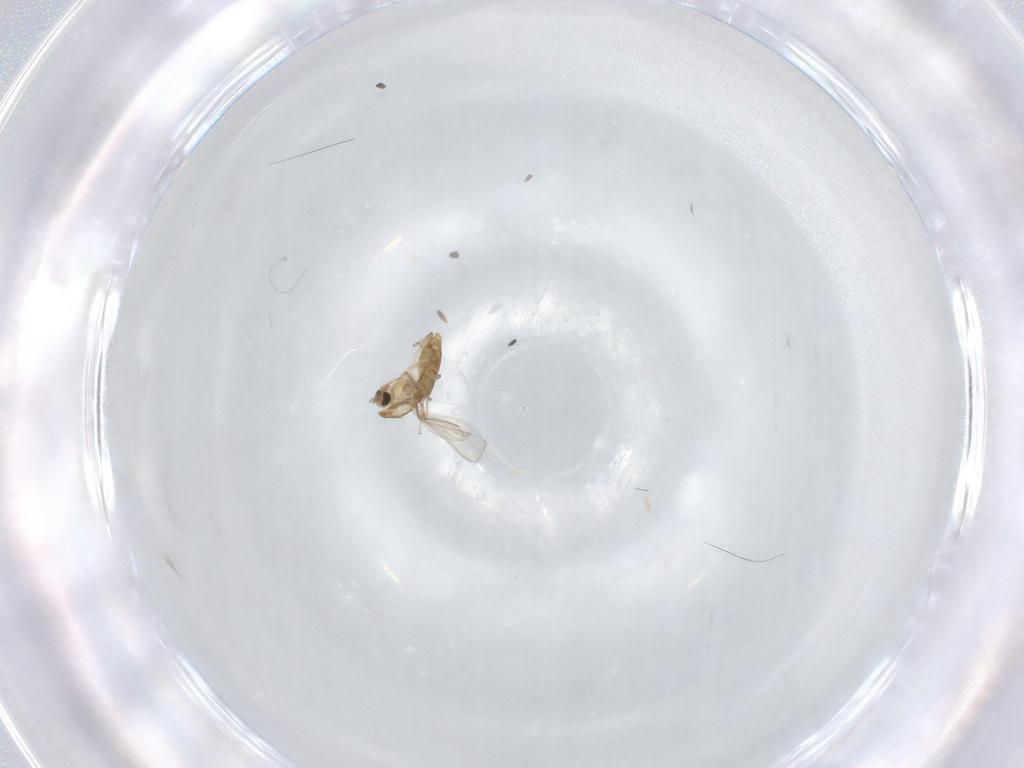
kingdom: Animalia
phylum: Arthropoda
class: Insecta
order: Diptera
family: Chironomidae
